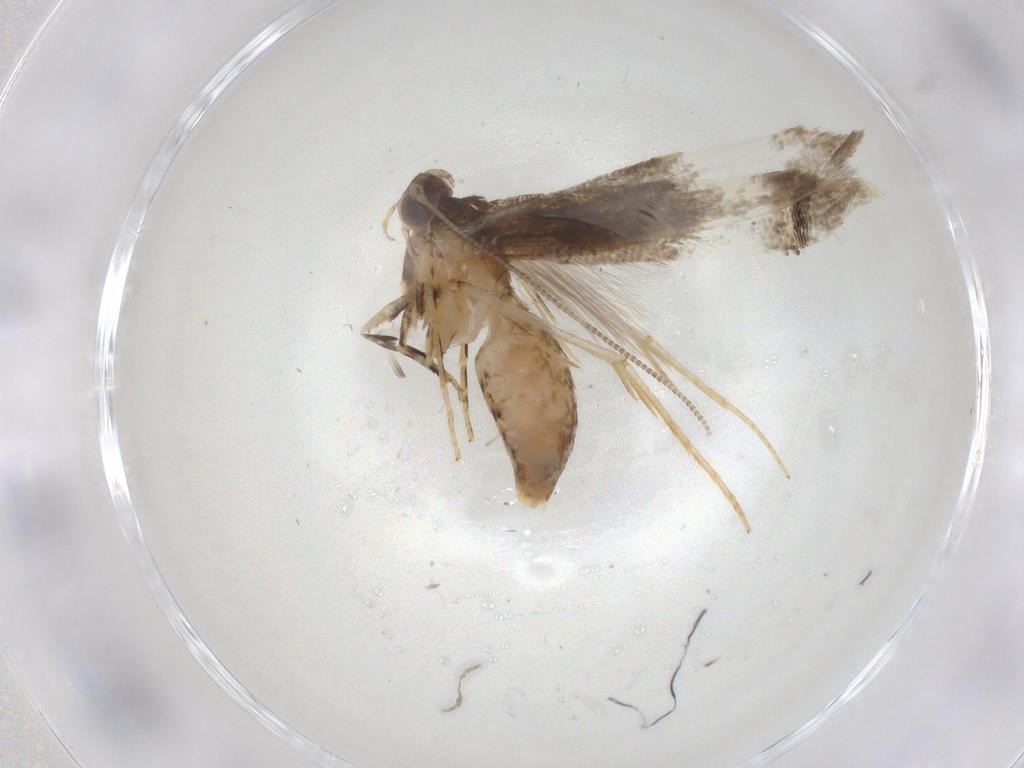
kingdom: Animalia
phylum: Arthropoda
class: Insecta
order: Lepidoptera
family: Tineidae
